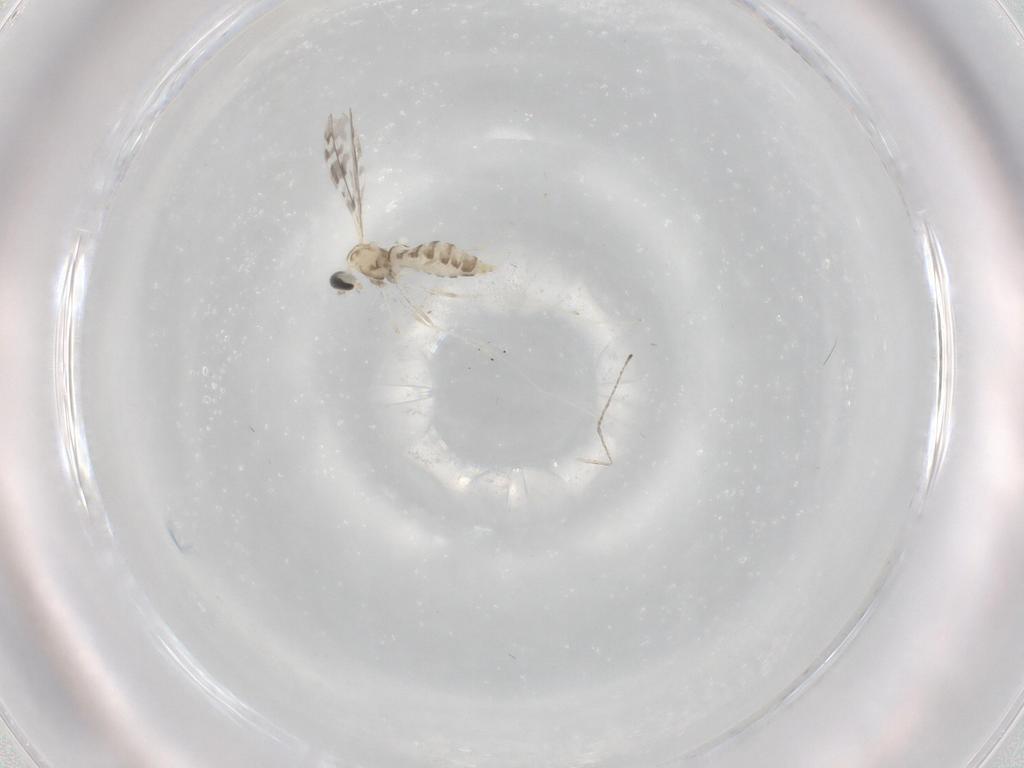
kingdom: Animalia
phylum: Arthropoda
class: Insecta
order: Diptera
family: Cecidomyiidae
